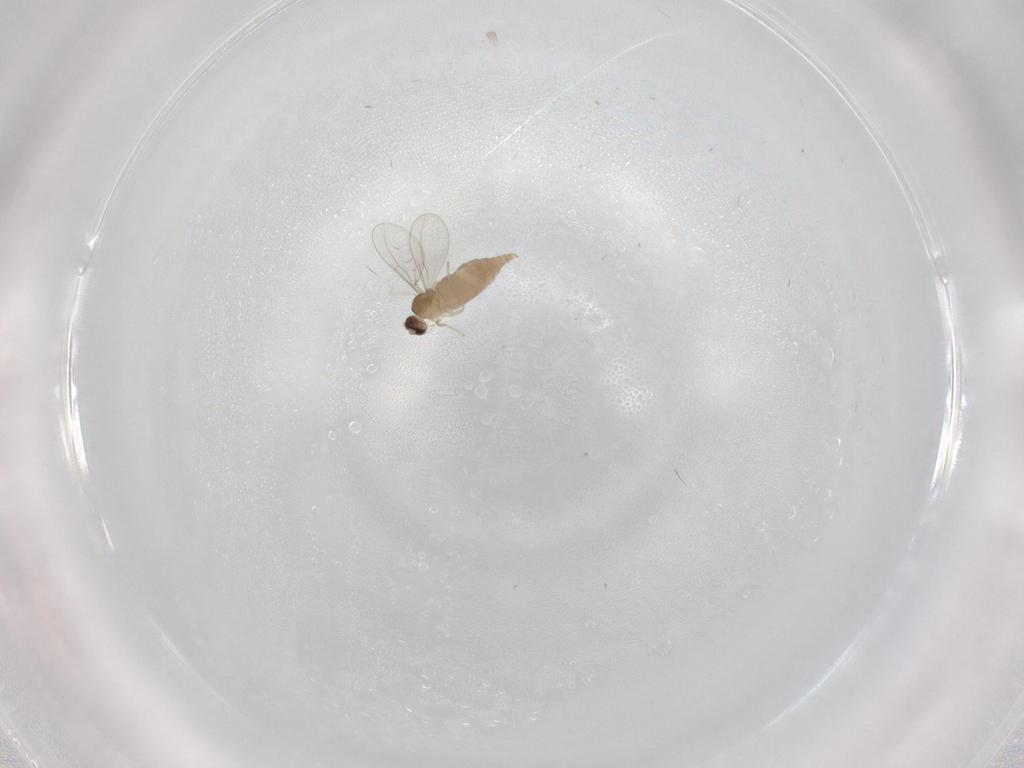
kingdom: Animalia
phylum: Arthropoda
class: Insecta
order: Diptera
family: Cecidomyiidae
